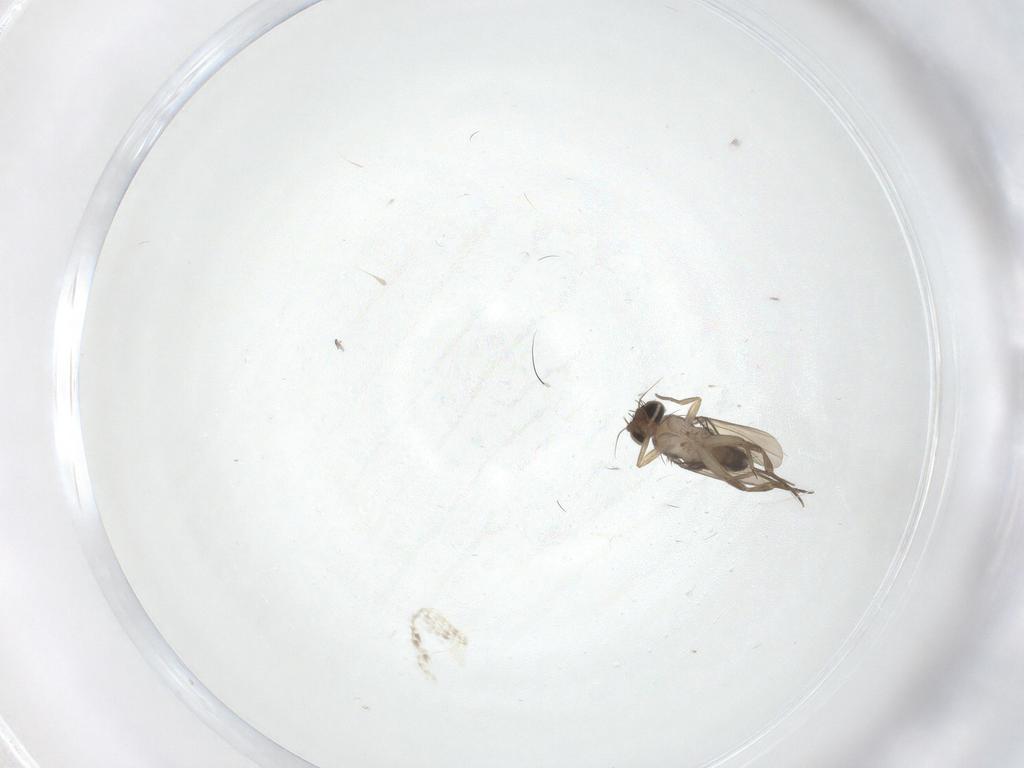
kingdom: Animalia
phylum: Arthropoda
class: Insecta
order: Diptera
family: Phoridae
